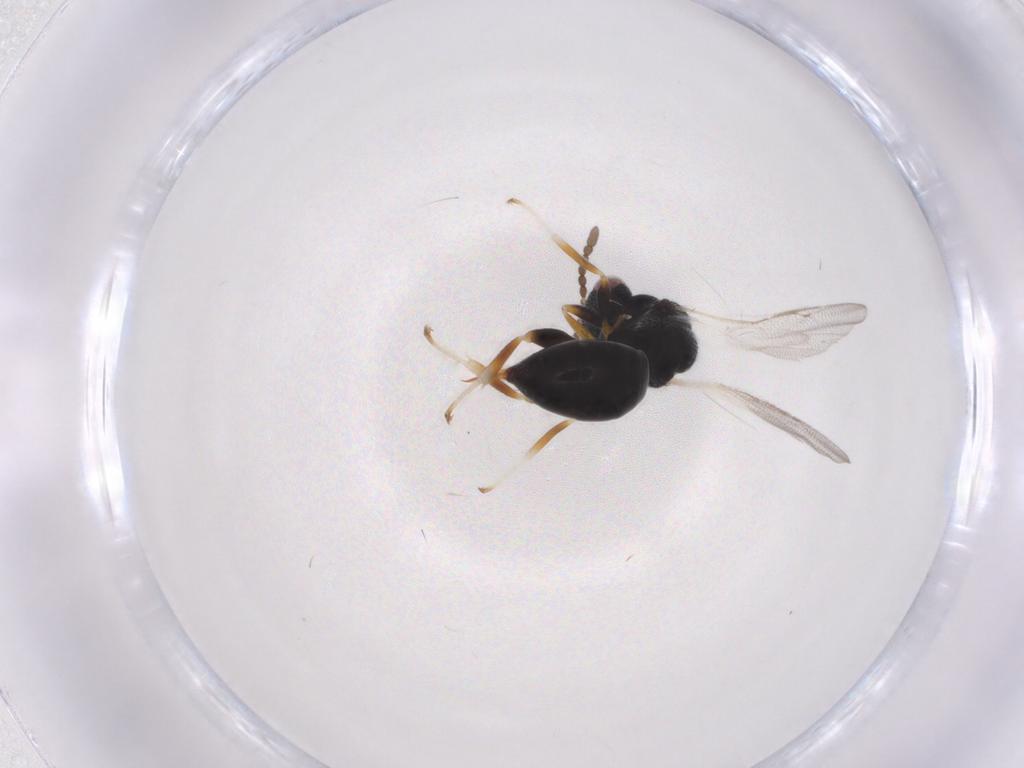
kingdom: Animalia
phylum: Arthropoda
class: Insecta
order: Hymenoptera
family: Eurytomidae
